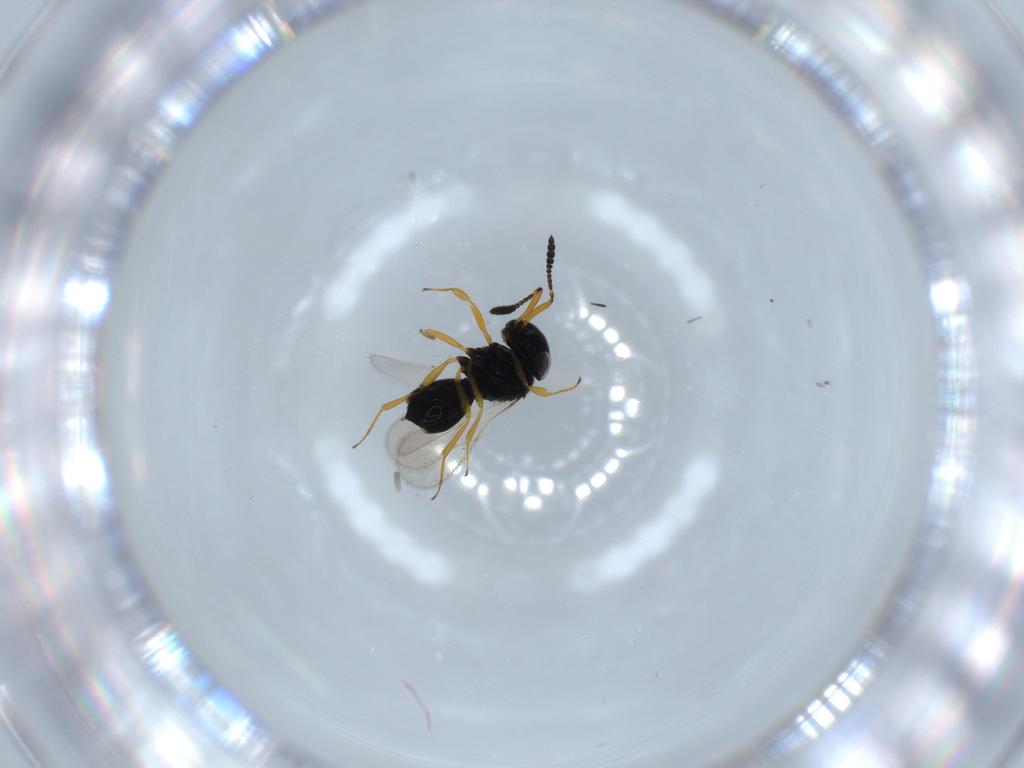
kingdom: Animalia
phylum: Arthropoda
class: Insecta
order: Hymenoptera
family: Scelionidae
